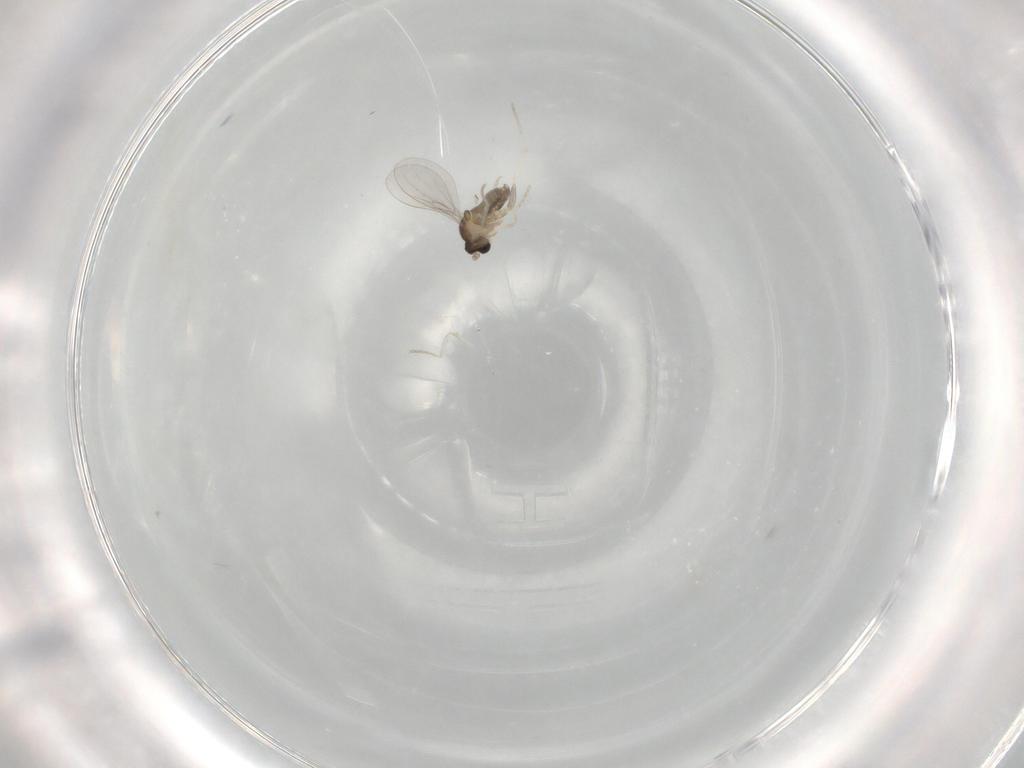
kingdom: Animalia
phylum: Arthropoda
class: Insecta
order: Diptera
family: Cecidomyiidae
